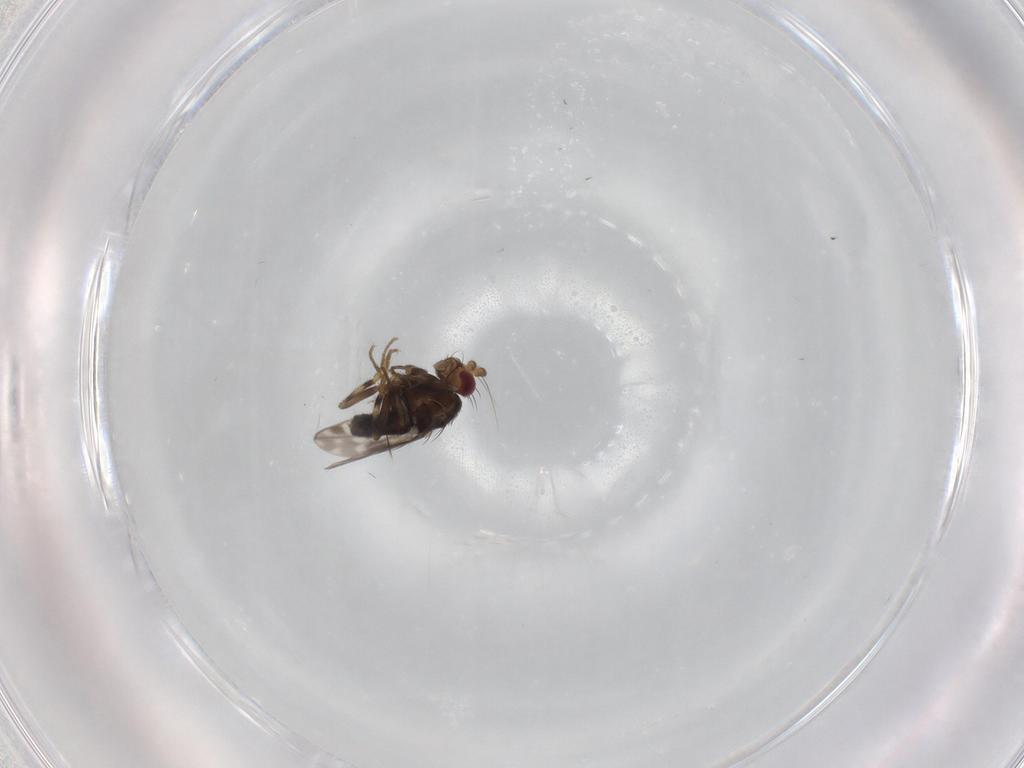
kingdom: Animalia
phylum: Arthropoda
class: Insecta
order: Diptera
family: Sphaeroceridae
